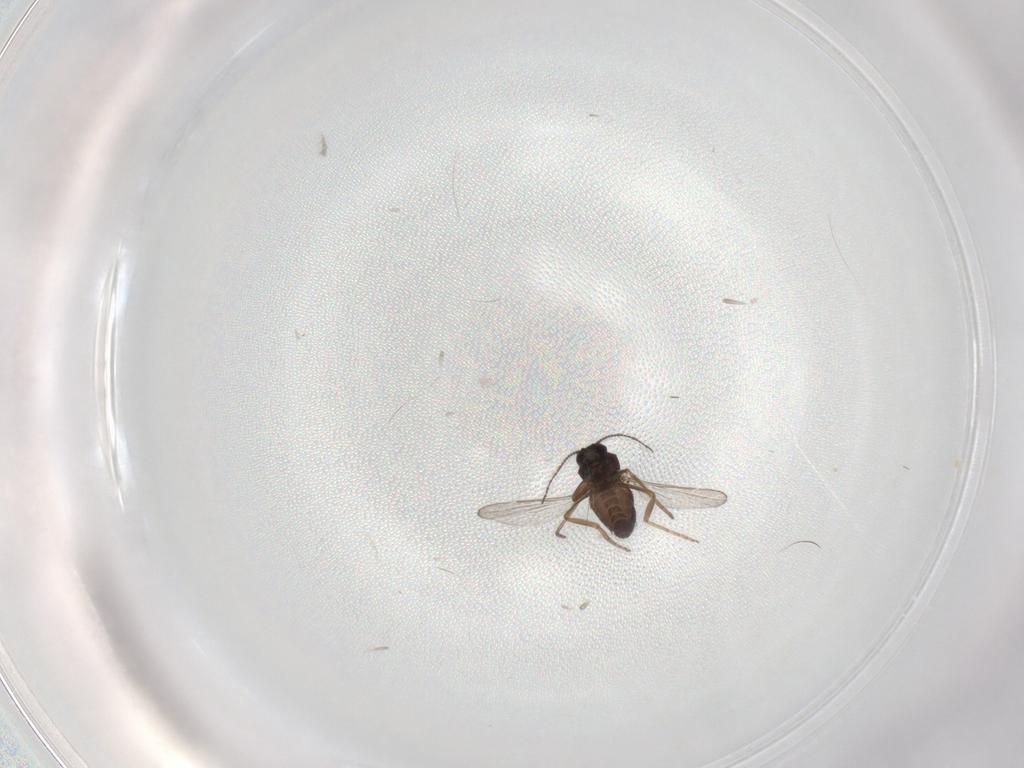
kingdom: Animalia
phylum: Arthropoda
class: Insecta
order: Diptera
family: Ceratopogonidae
